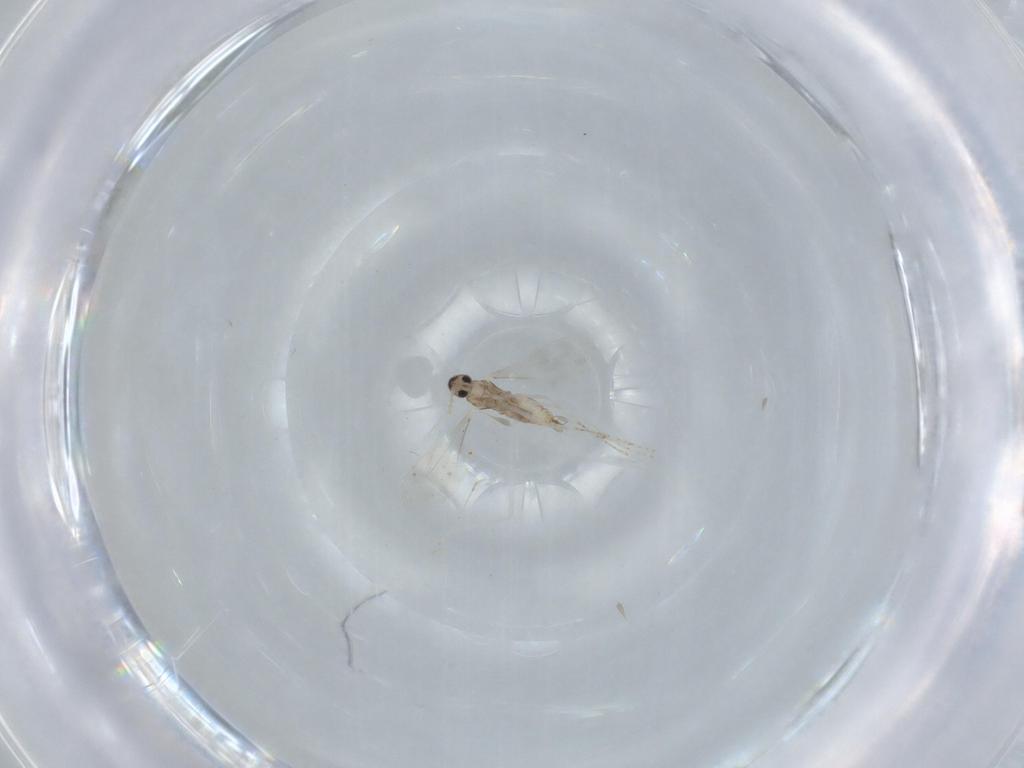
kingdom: Animalia
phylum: Arthropoda
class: Insecta
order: Diptera
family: Cecidomyiidae
